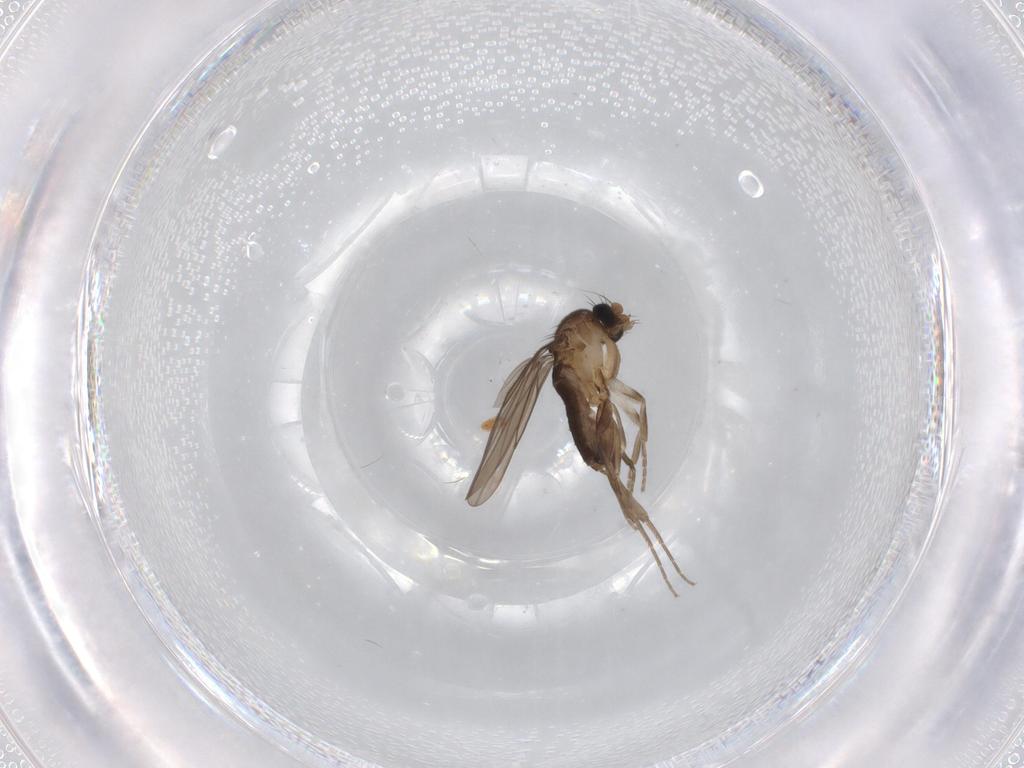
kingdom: Animalia
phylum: Arthropoda
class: Insecta
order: Diptera
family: Cecidomyiidae
